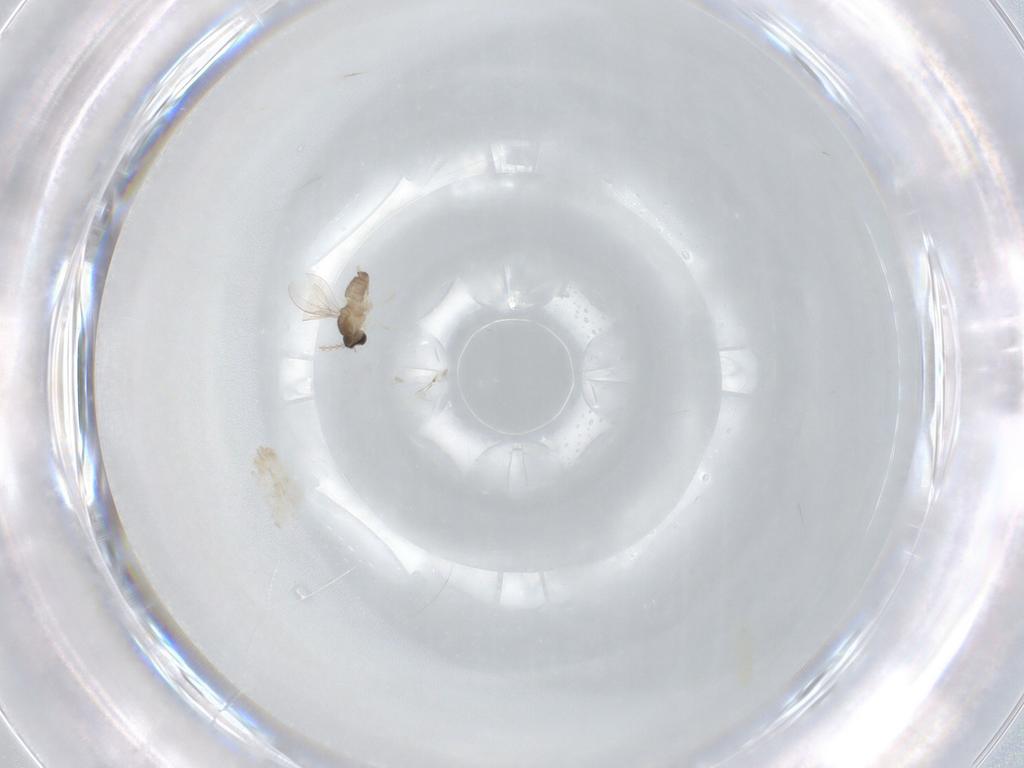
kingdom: Animalia
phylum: Arthropoda
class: Insecta
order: Diptera
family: Cecidomyiidae
